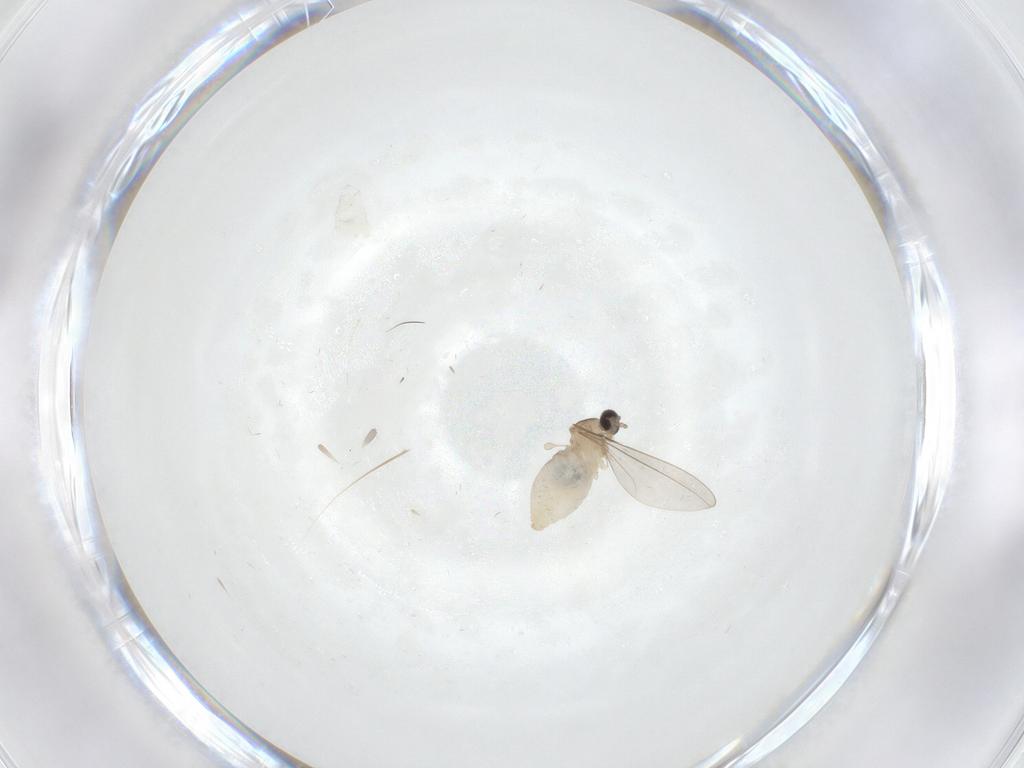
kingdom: Animalia
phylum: Arthropoda
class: Insecta
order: Diptera
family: Cecidomyiidae
